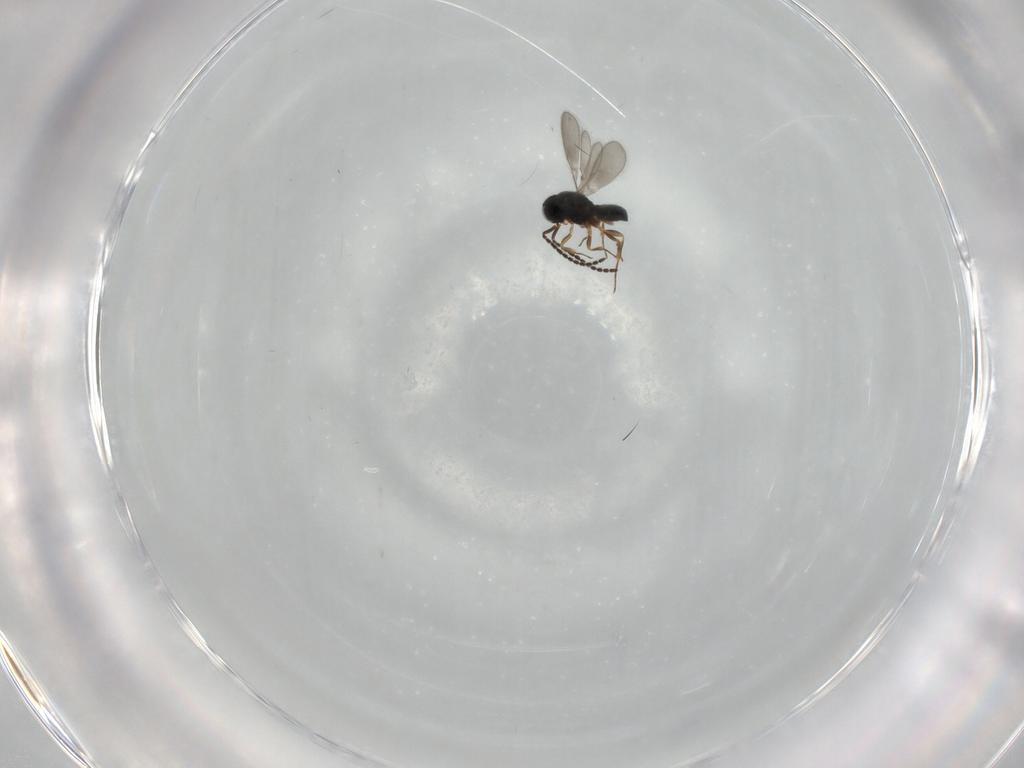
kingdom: Animalia
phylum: Arthropoda
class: Insecta
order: Hymenoptera
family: Scelionidae
